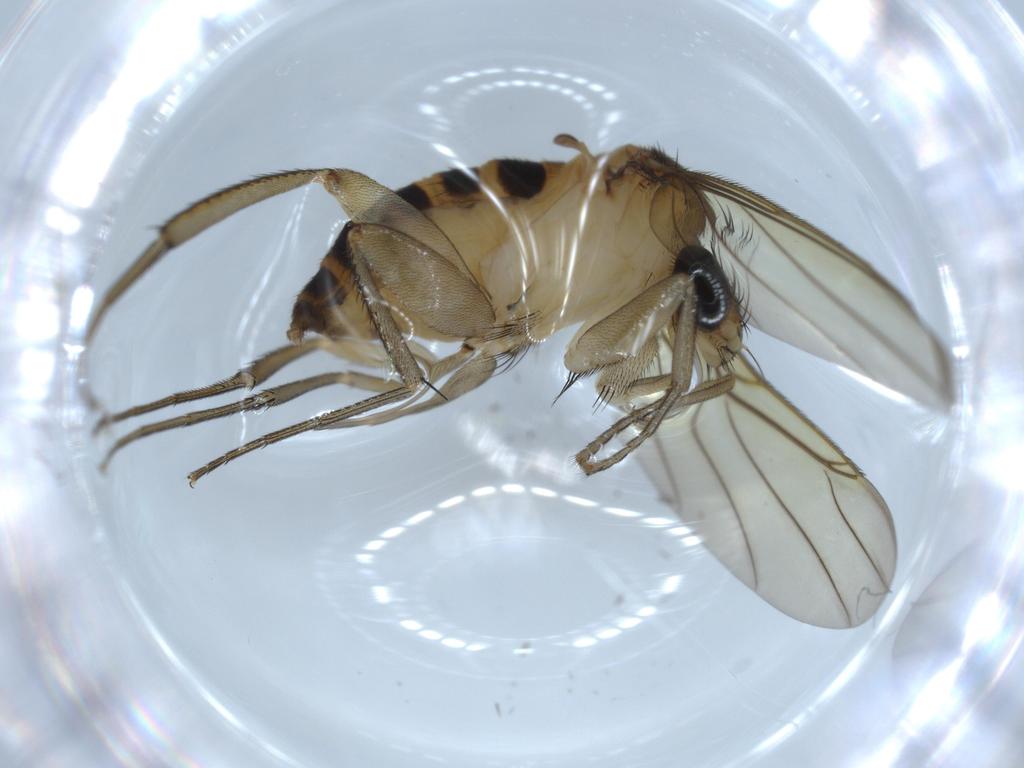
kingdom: Animalia
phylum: Arthropoda
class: Insecta
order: Diptera
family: Phoridae
